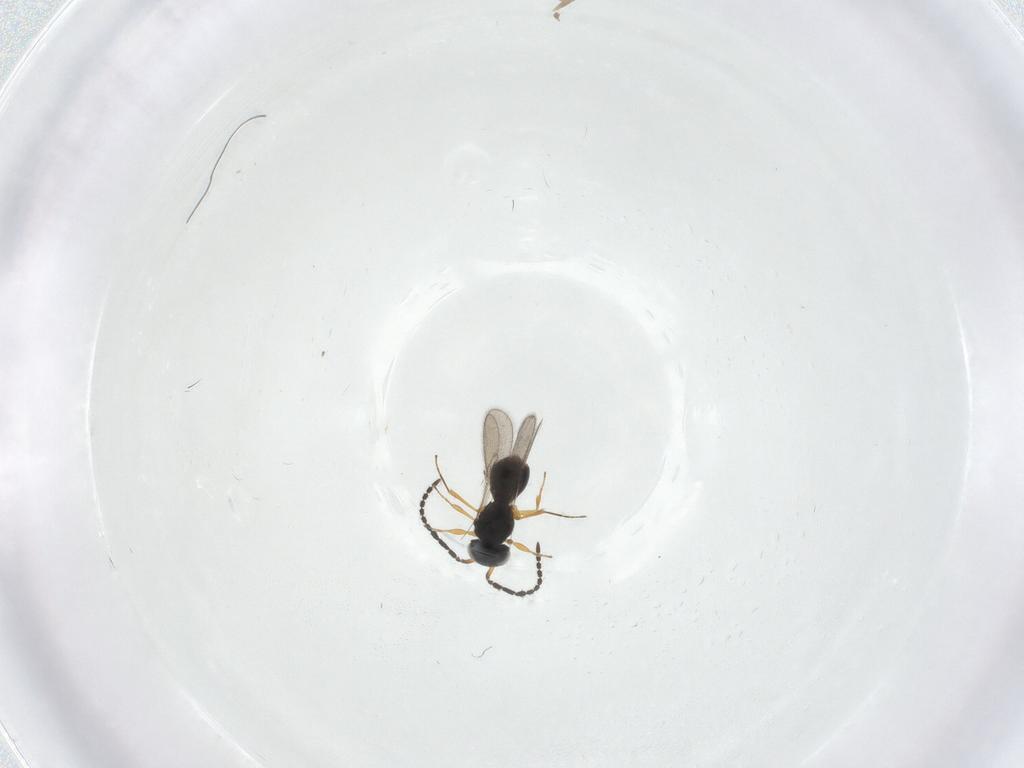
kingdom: Animalia
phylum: Arthropoda
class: Insecta
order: Hymenoptera
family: Scelionidae
